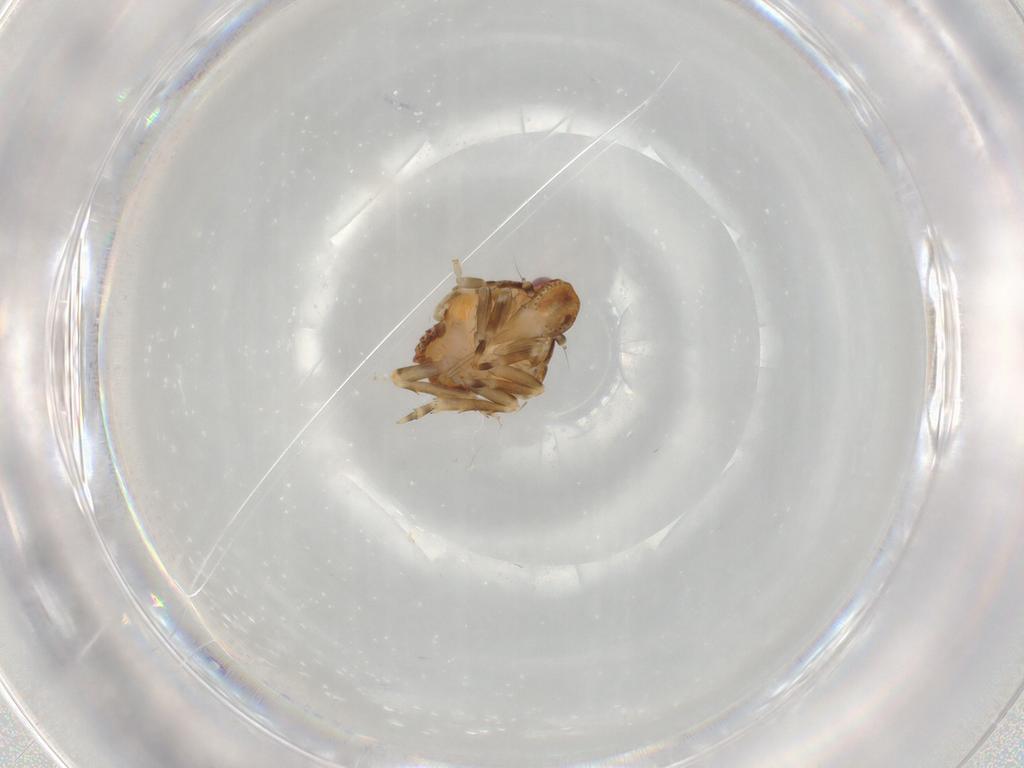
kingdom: Animalia
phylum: Arthropoda
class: Insecta
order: Hemiptera
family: Flatidae
